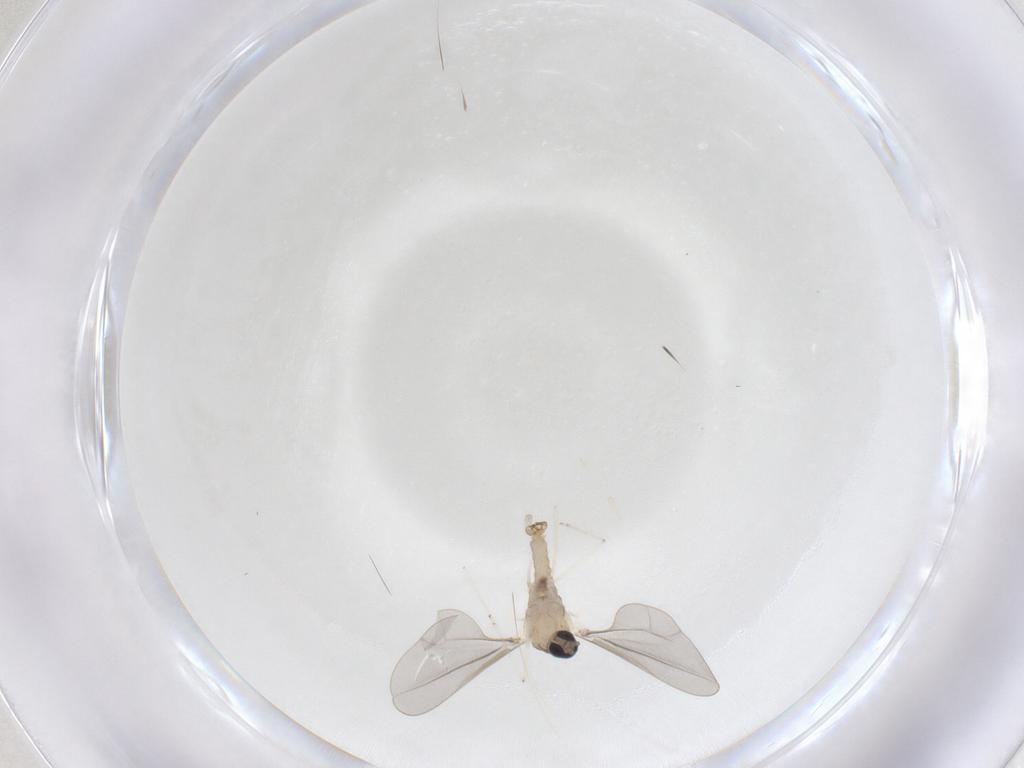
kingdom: Animalia
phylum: Arthropoda
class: Insecta
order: Diptera
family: Cecidomyiidae
